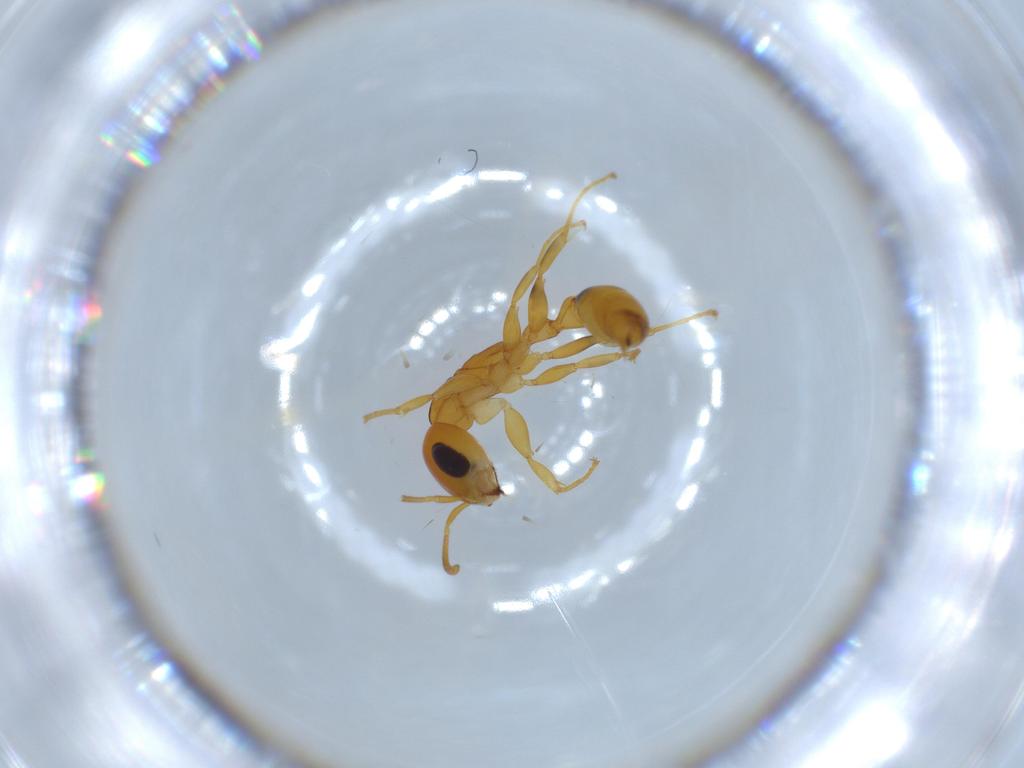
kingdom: Animalia
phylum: Arthropoda
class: Insecta
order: Hymenoptera
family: Formicidae
